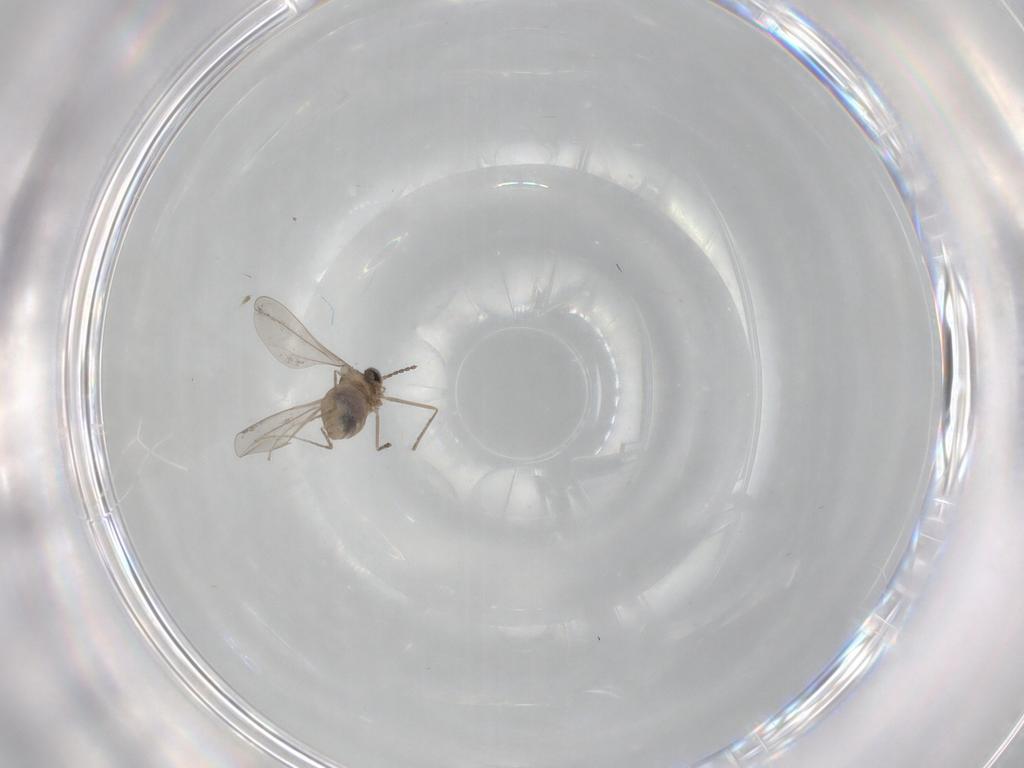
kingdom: Animalia
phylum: Arthropoda
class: Insecta
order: Diptera
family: Cecidomyiidae
